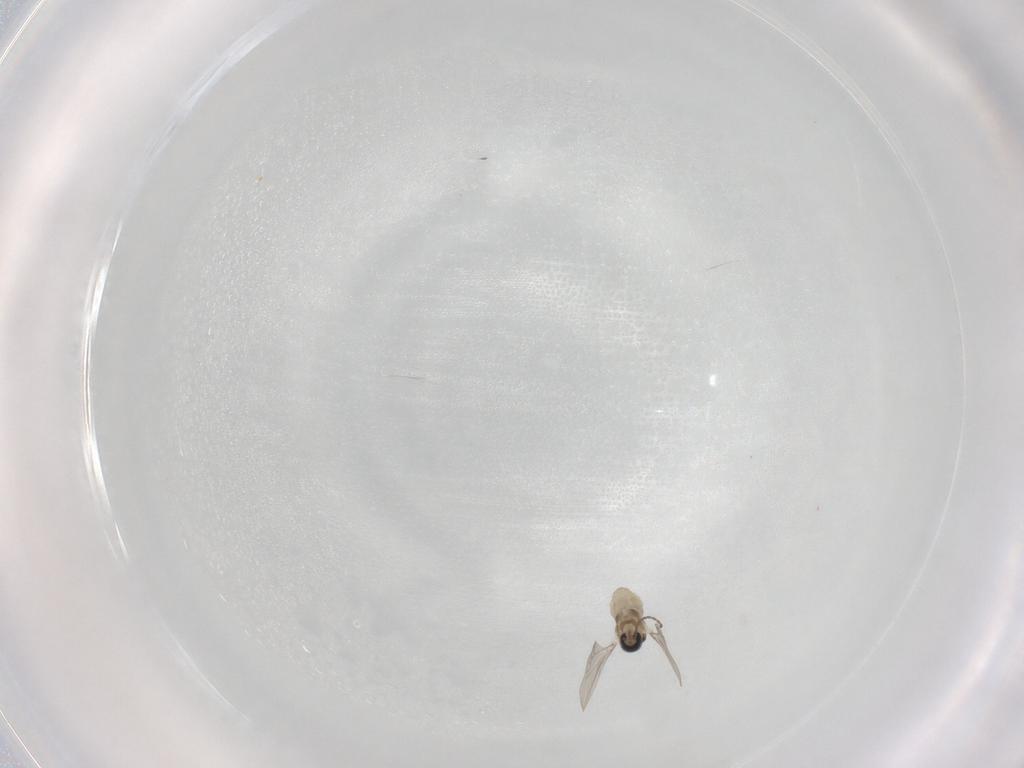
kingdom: Animalia
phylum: Arthropoda
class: Insecta
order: Diptera
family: Cecidomyiidae
